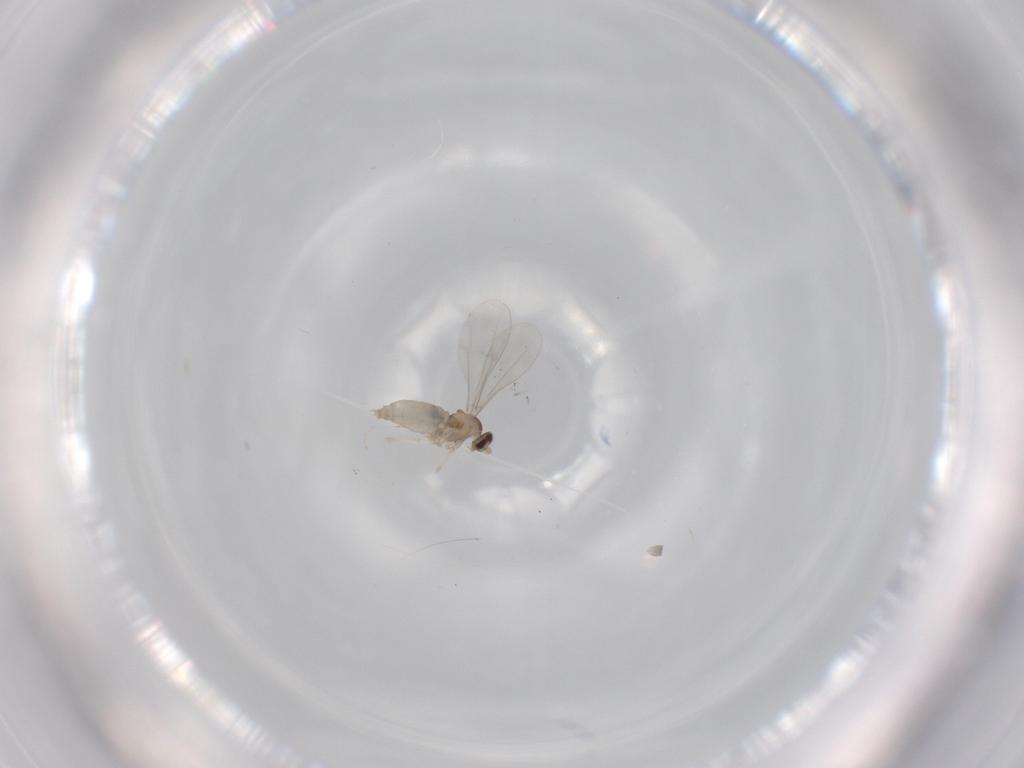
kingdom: Animalia
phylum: Arthropoda
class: Insecta
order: Diptera
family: Cecidomyiidae
